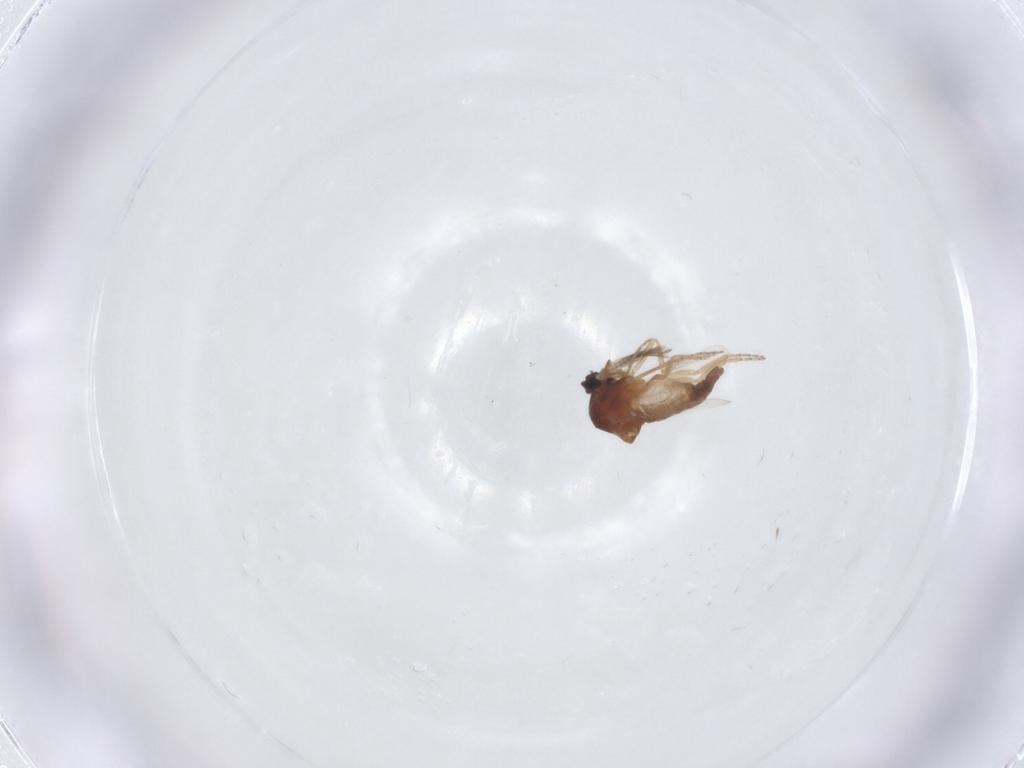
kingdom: Animalia
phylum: Arthropoda
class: Insecta
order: Diptera
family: Ceratopogonidae
